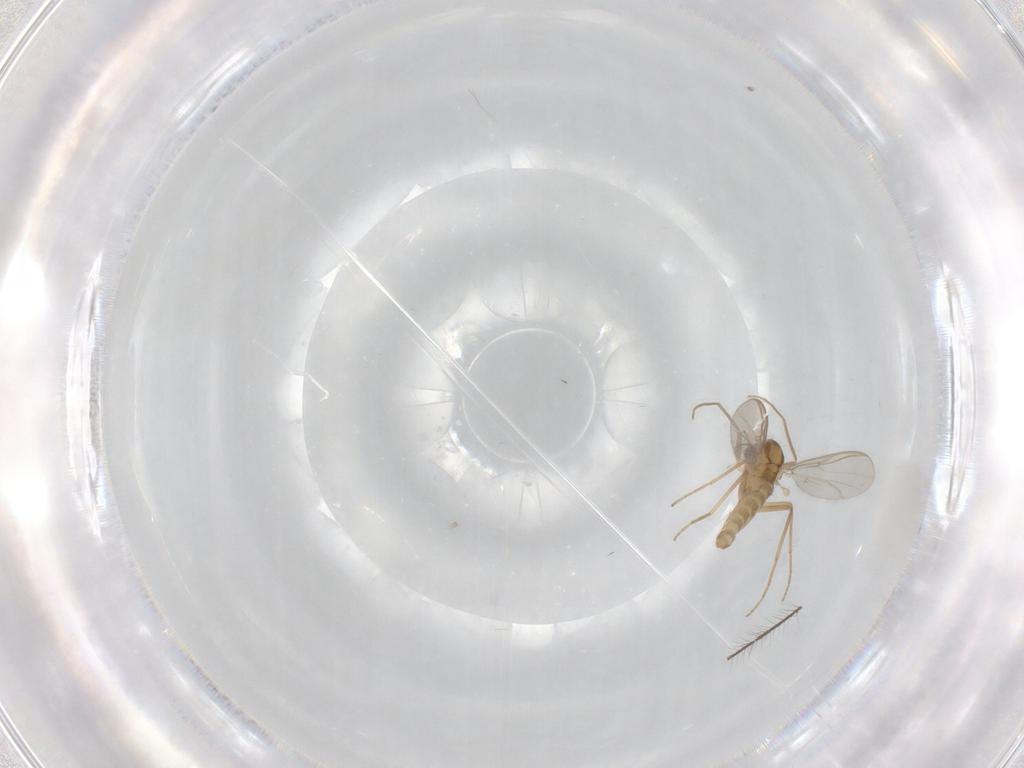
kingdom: Animalia
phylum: Arthropoda
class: Insecta
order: Diptera
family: Chironomidae
